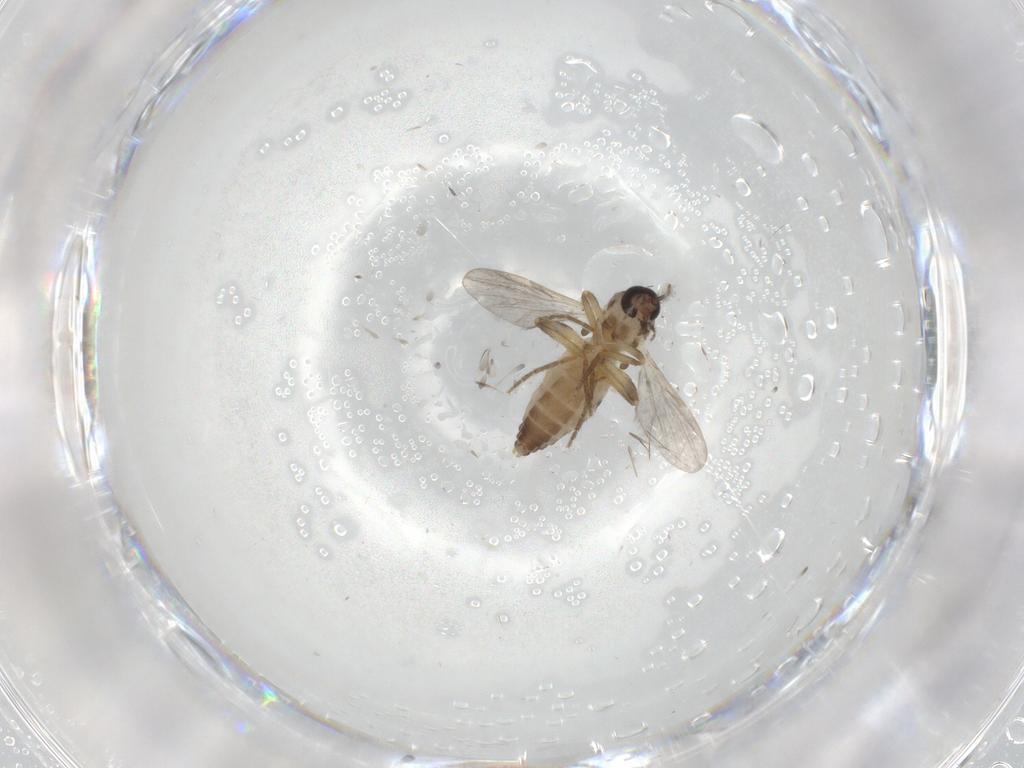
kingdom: Animalia
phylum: Arthropoda
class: Insecta
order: Diptera
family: Ceratopogonidae
